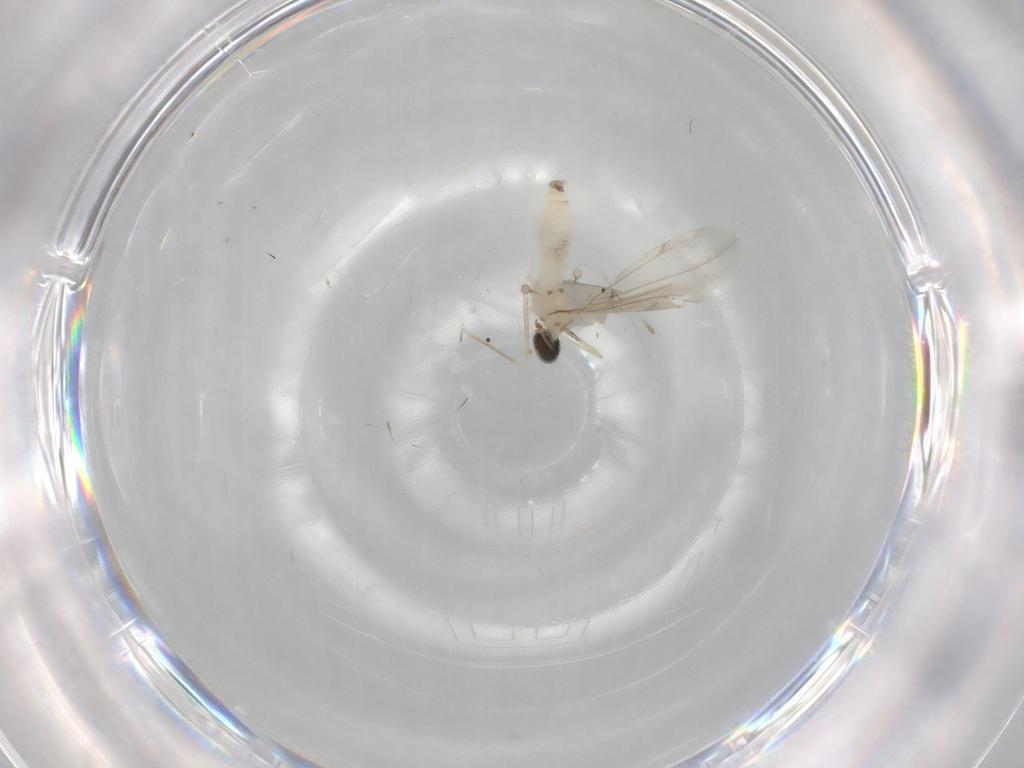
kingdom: Animalia
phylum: Arthropoda
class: Insecta
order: Diptera
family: Cecidomyiidae
